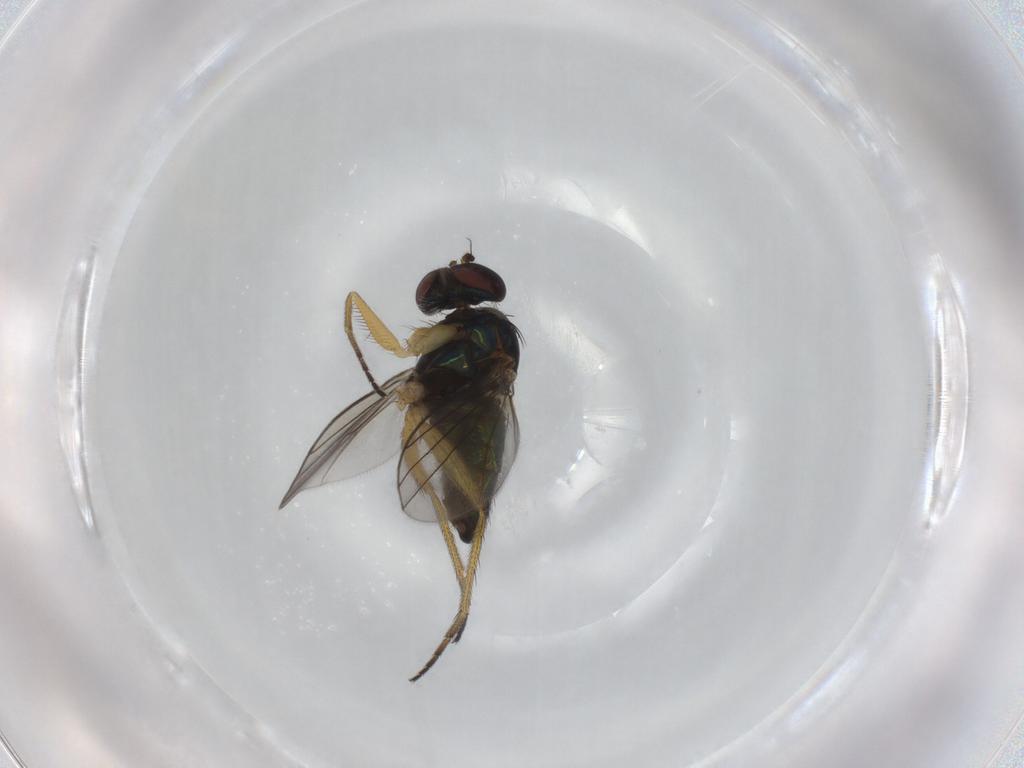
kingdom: Animalia
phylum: Arthropoda
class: Insecta
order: Diptera
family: Dolichopodidae
